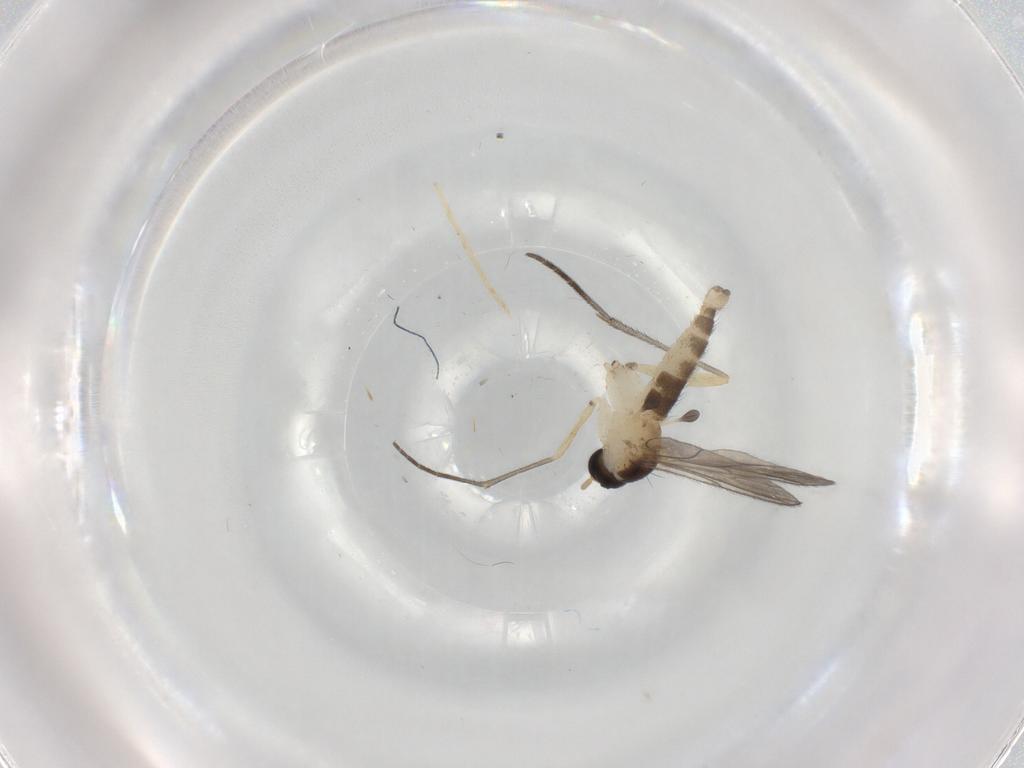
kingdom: Animalia
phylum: Arthropoda
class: Insecta
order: Diptera
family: Sciaridae
